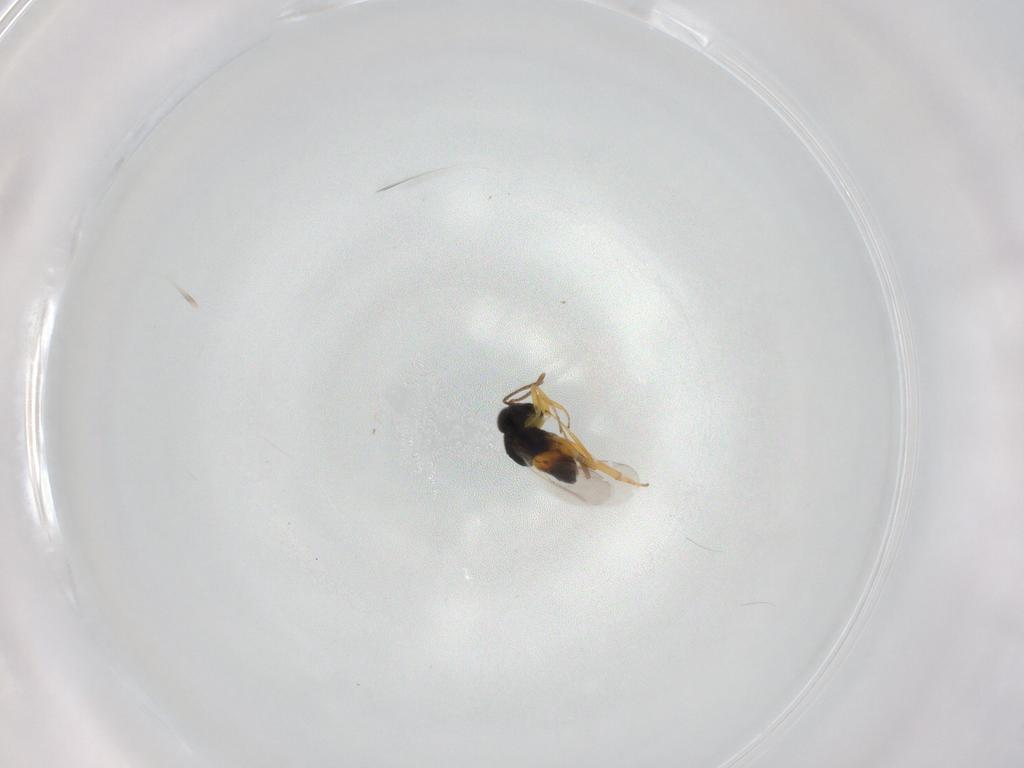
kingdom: Animalia
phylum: Arthropoda
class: Insecta
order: Hymenoptera
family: Encyrtidae
